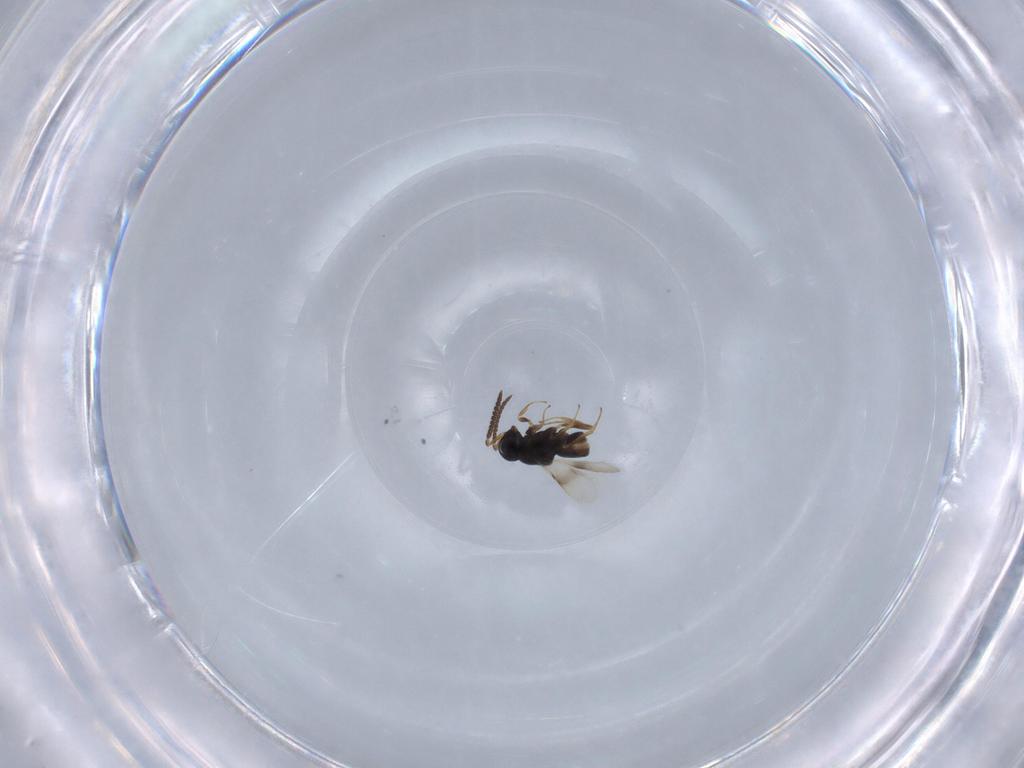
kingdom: Animalia
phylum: Arthropoda
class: Insecta
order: Hymenoptera
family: Scelionidae
